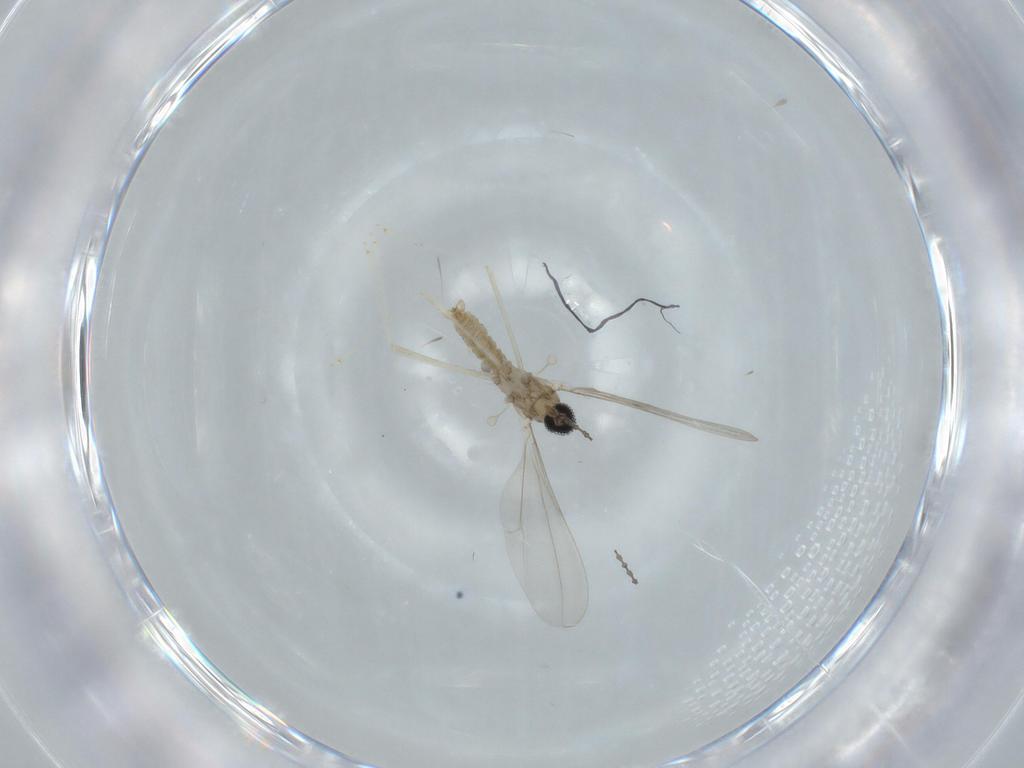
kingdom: Animalia
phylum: Arthropoda
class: Insecta
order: Diptera
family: Cecidomyiidae
